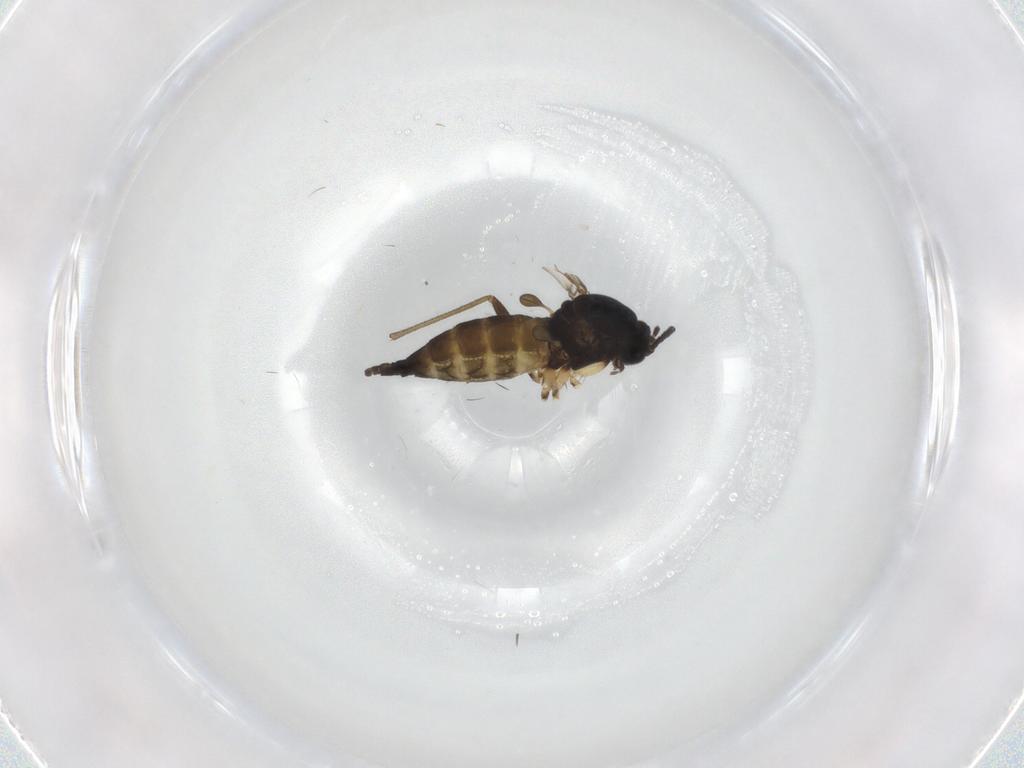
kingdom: Animalia
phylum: Arthropoda
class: Insecta
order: Diptera
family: Sciaridae
